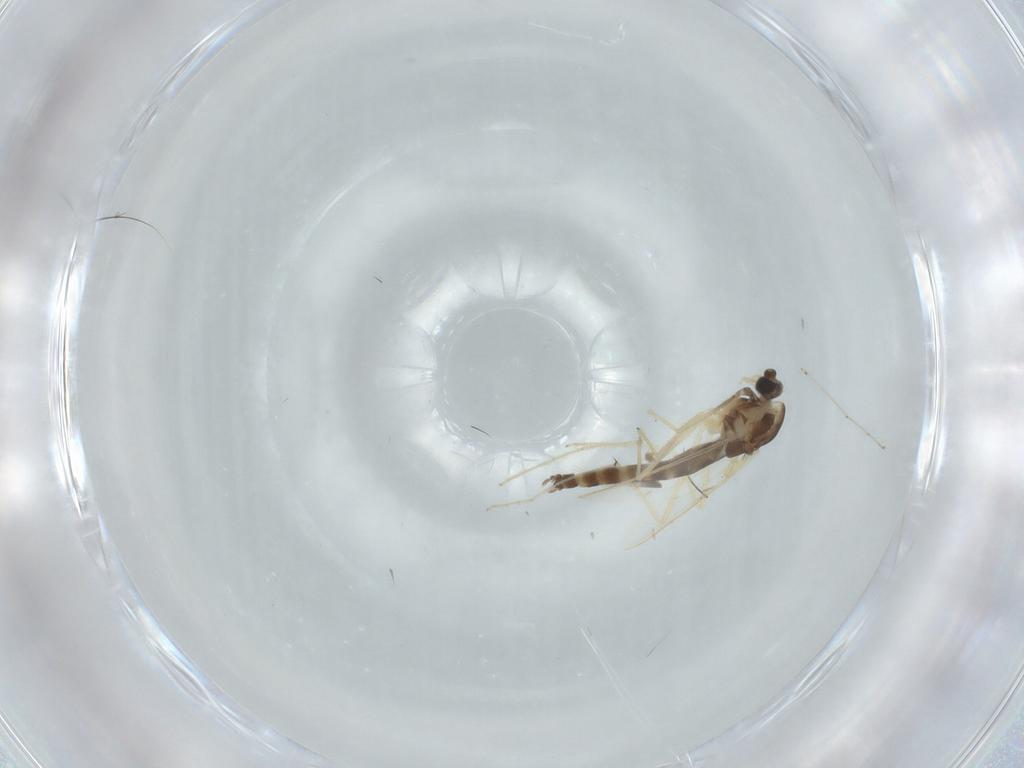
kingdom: Animalia
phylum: Arthropoda
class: Insecta
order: Diptera
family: Chironomidae
